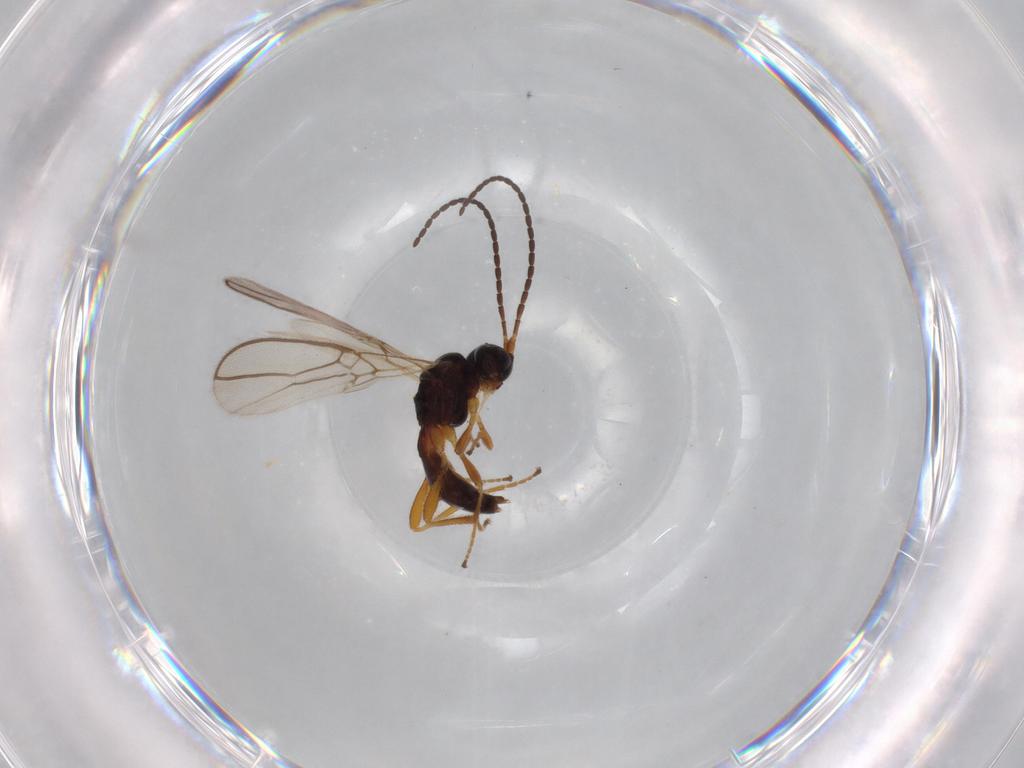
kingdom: Animalia
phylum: Arthropoda
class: Insecta
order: Hymenoptera
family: Braconidae
